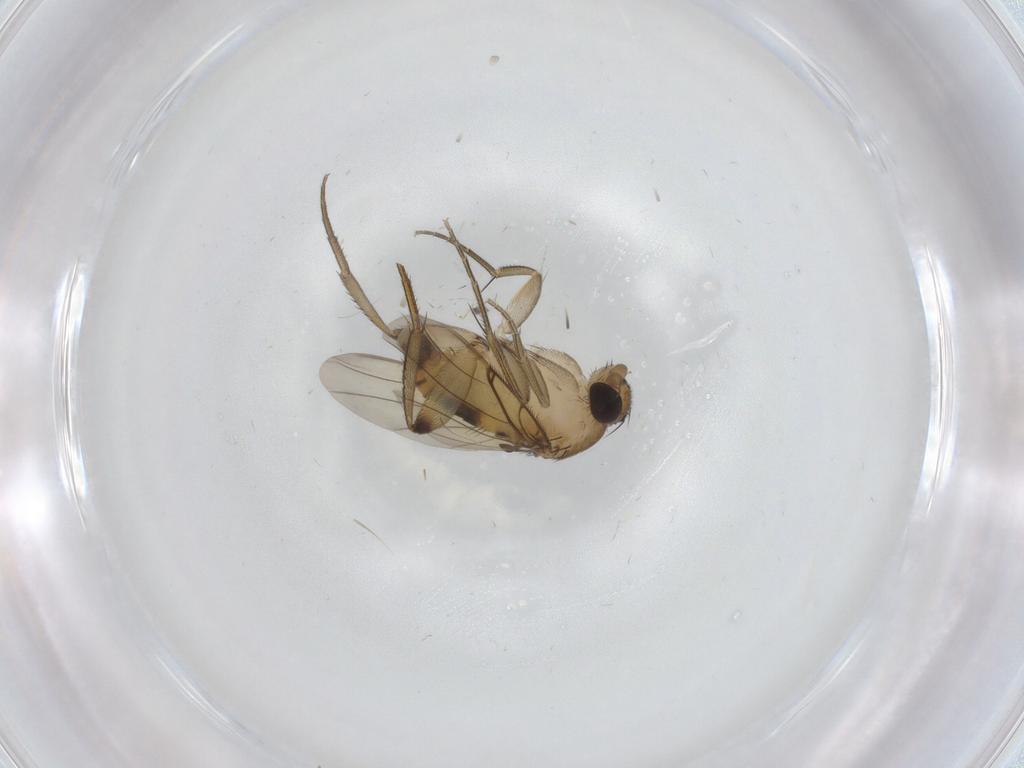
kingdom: Animalia
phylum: Arthropoda
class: Insecta
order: Diptera
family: Phoridae
